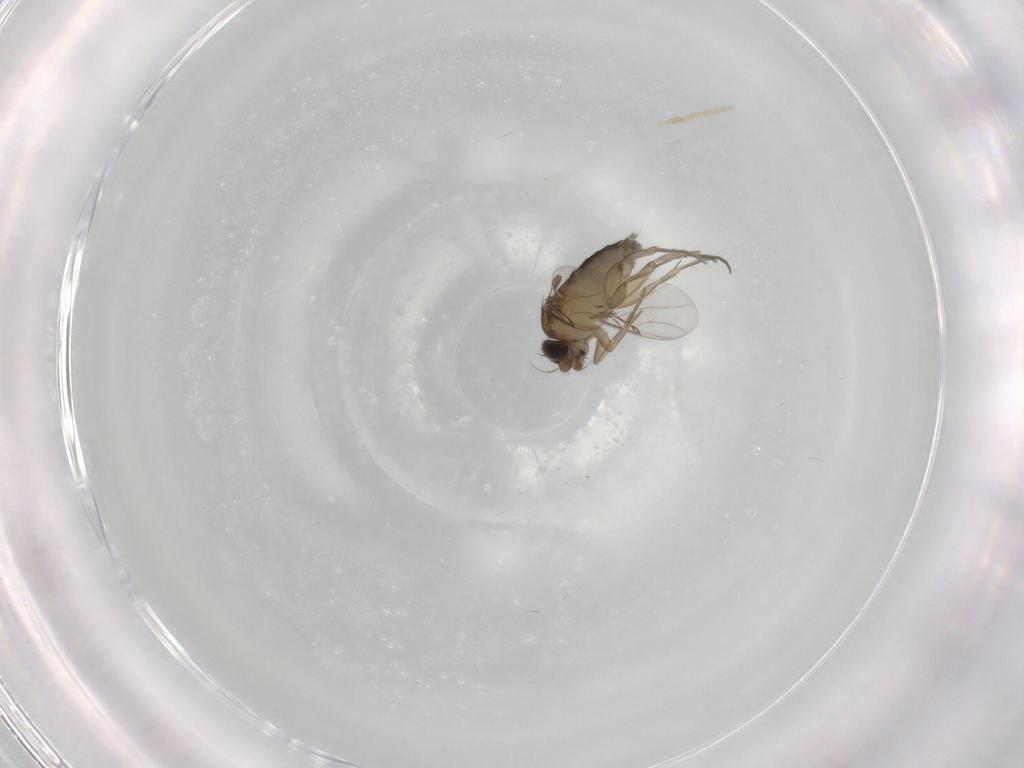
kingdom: Animalia
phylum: Arthropoda
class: Insecta
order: Diptera
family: Phoridae
